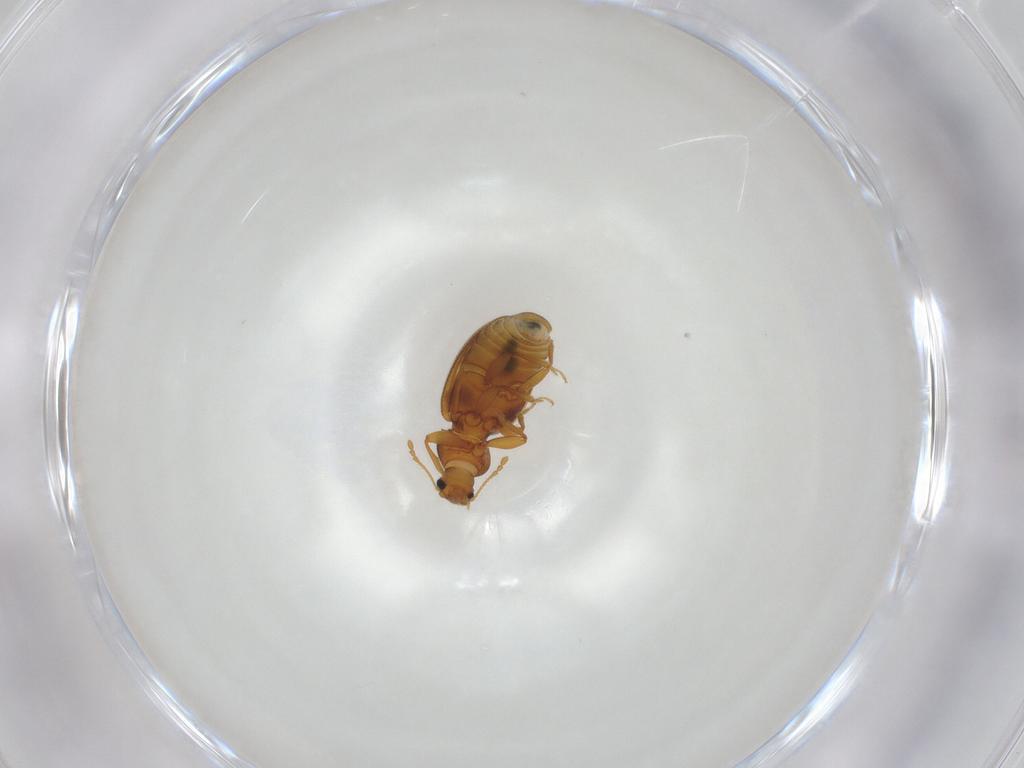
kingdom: Animalia
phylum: Arthropoda
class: Insecta
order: Coleoptera
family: Latridiidae
